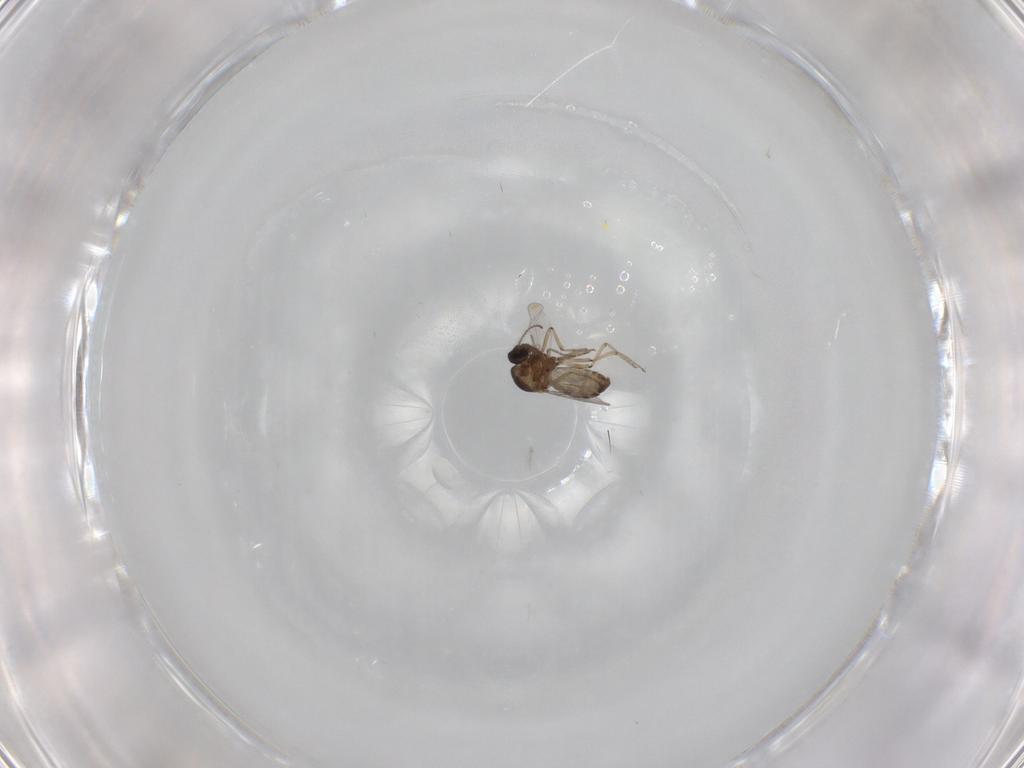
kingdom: Animalia
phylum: Arthropoda
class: Insecta
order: Diptera
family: Ceratopogonidae
